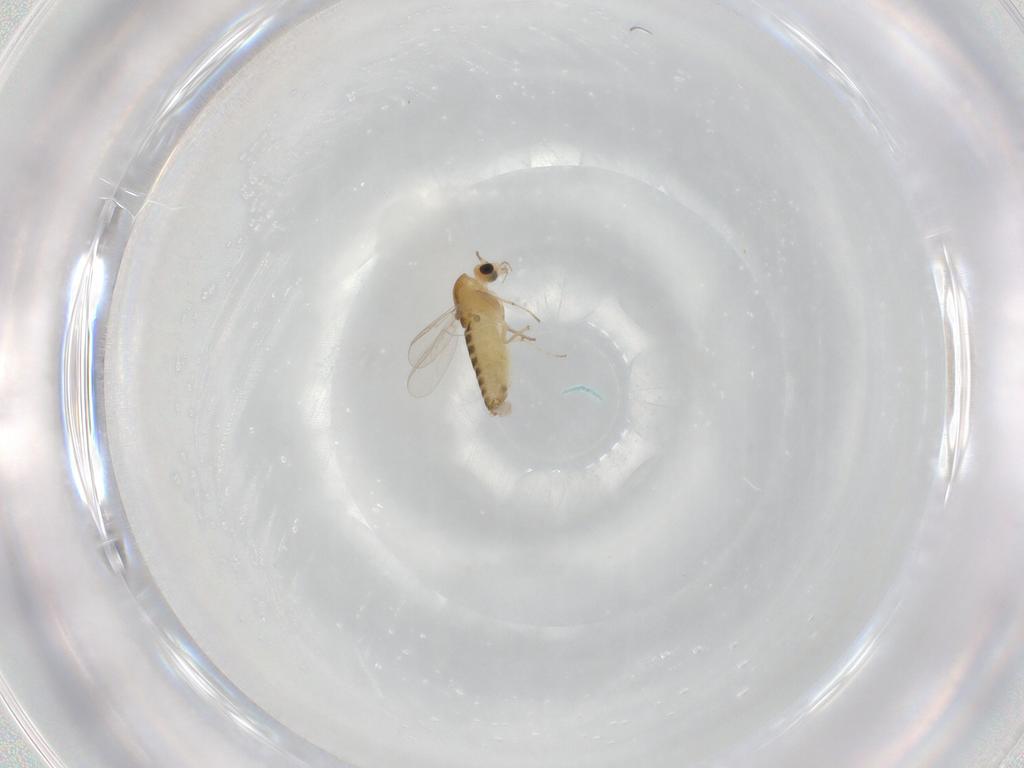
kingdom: Animalia
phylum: Arthropoda
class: Insecta
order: Diptera
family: Chironomidae
